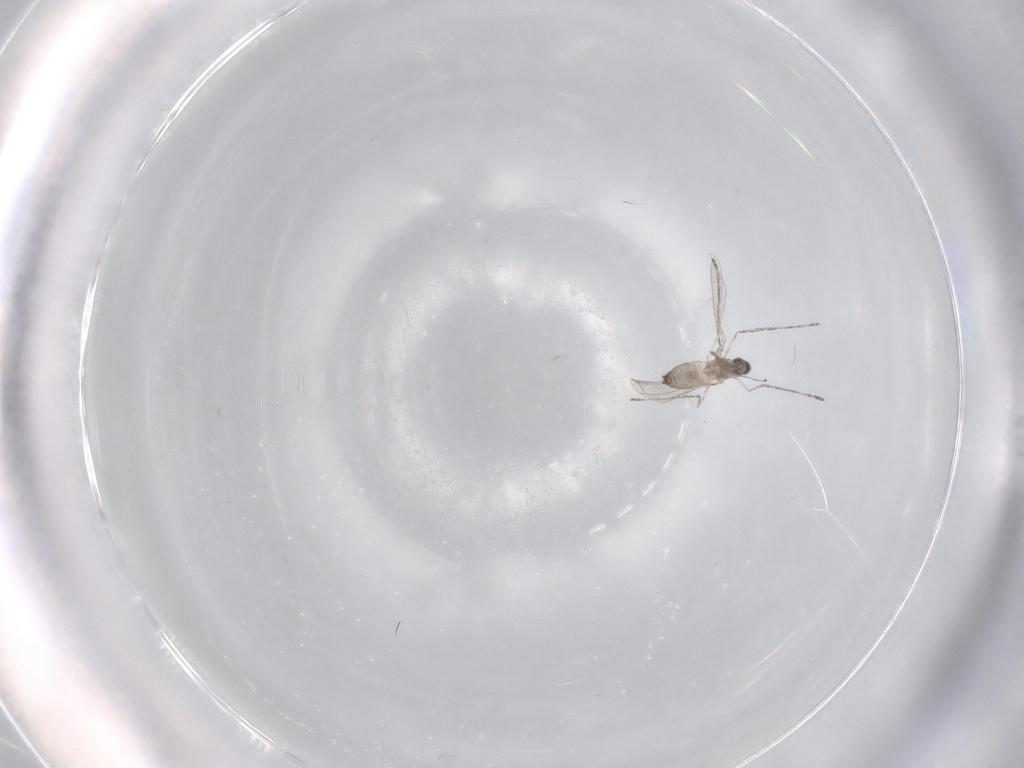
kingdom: Animalia
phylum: Arthropoda
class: Insecta
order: Diptera
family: Cecidomyiidae
